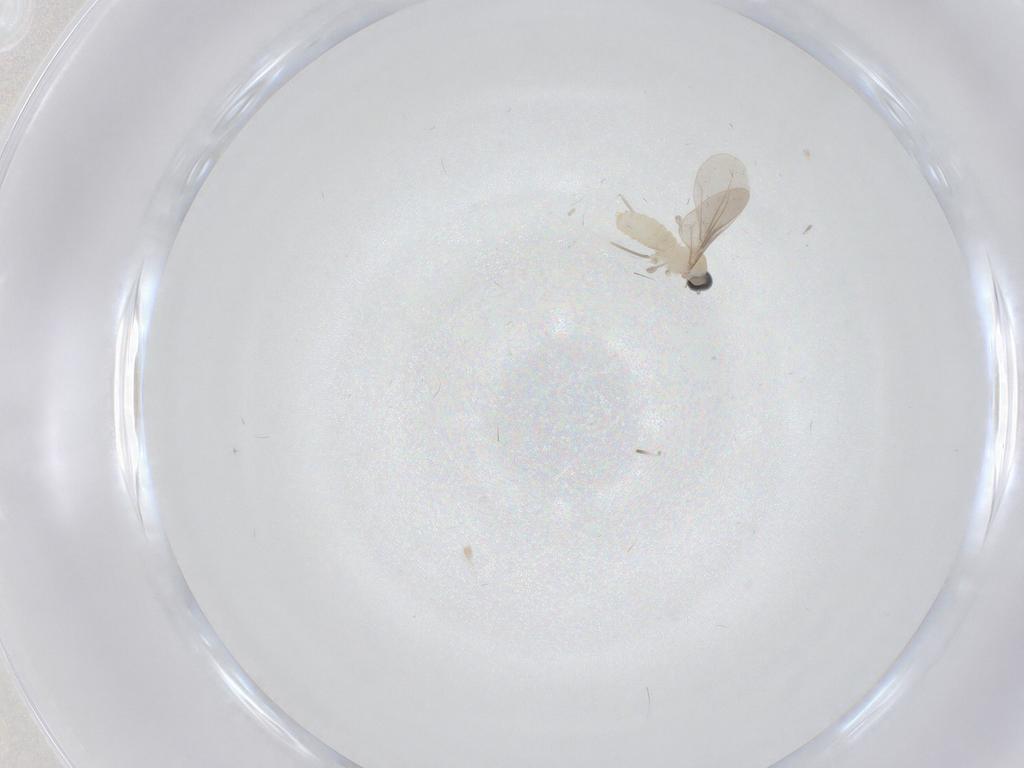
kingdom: Animalia
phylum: Arthropoda
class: Insecta
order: Diptera
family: Cecidomyiidae
